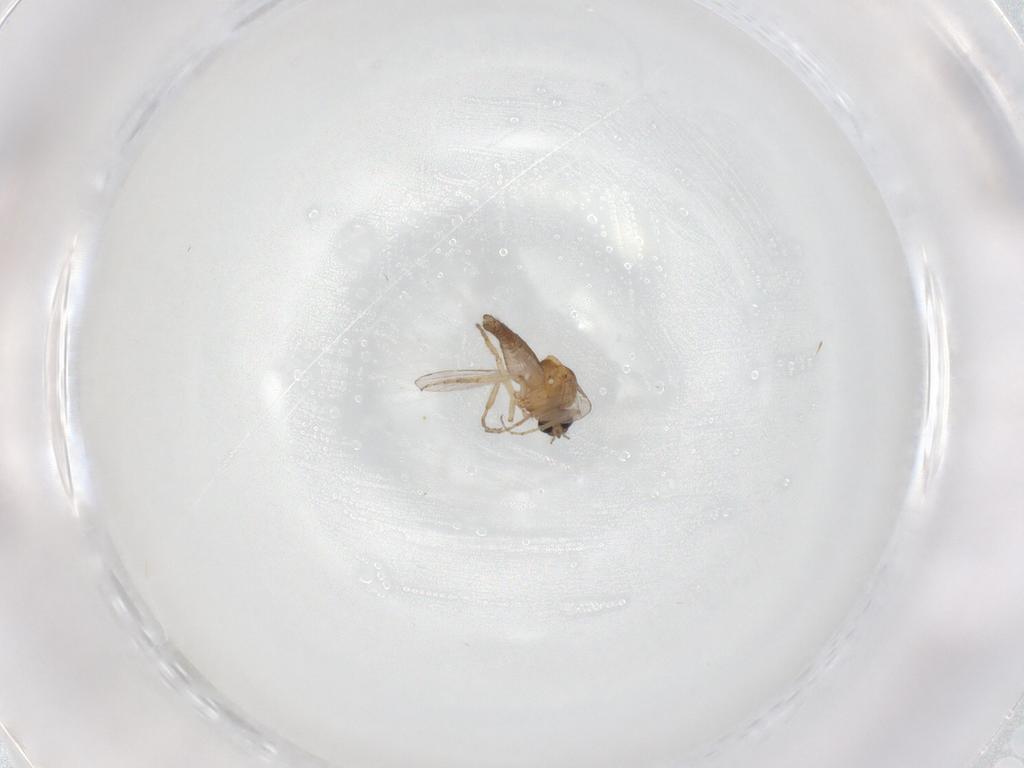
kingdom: Animalia
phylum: Arthropoda
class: Insecta
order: Diptera
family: Ceratopogonidae
